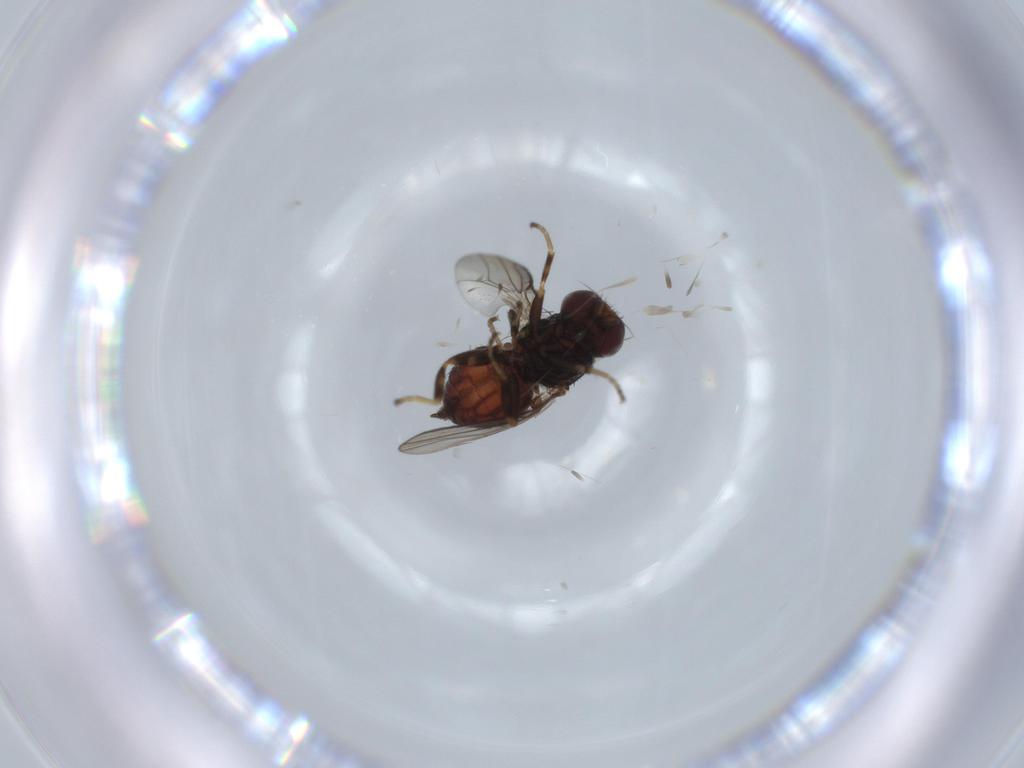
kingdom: Animalia
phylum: Arthropoda
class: Insecta
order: Diptera
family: Chloropidae
